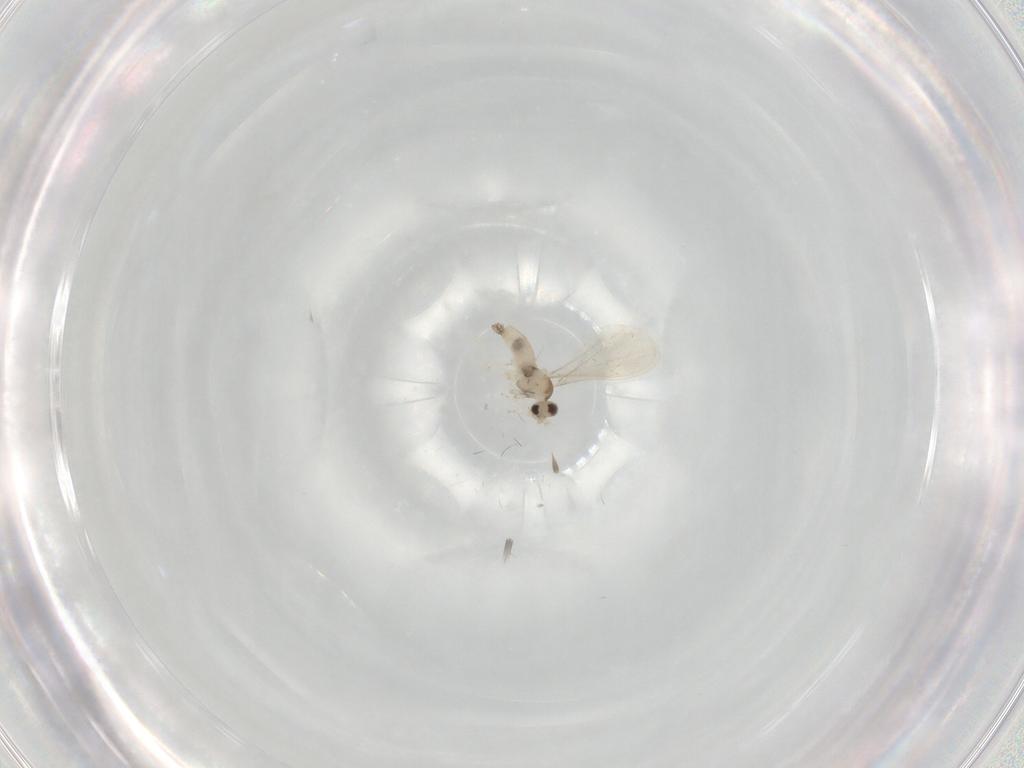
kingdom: Animalia
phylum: Arthropoda
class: Insecta
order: Diptera
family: Cecidomyiidae
